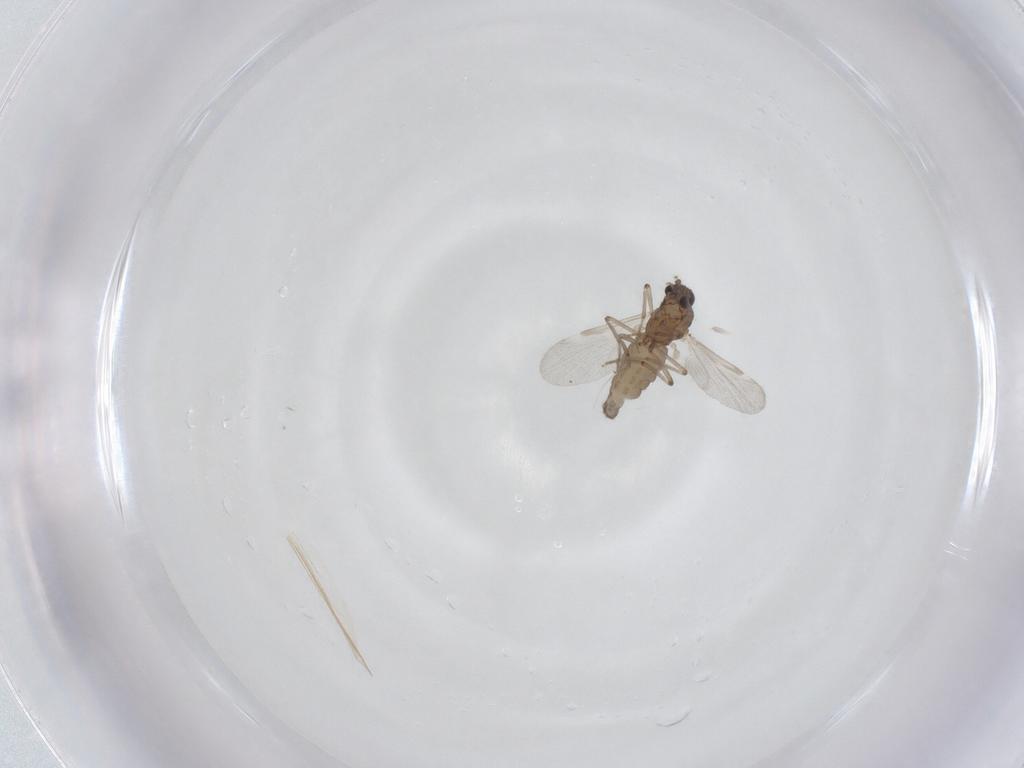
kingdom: Animalia
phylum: Arthropoda
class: Insecta
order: Diptera
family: Ceratopogonidae
